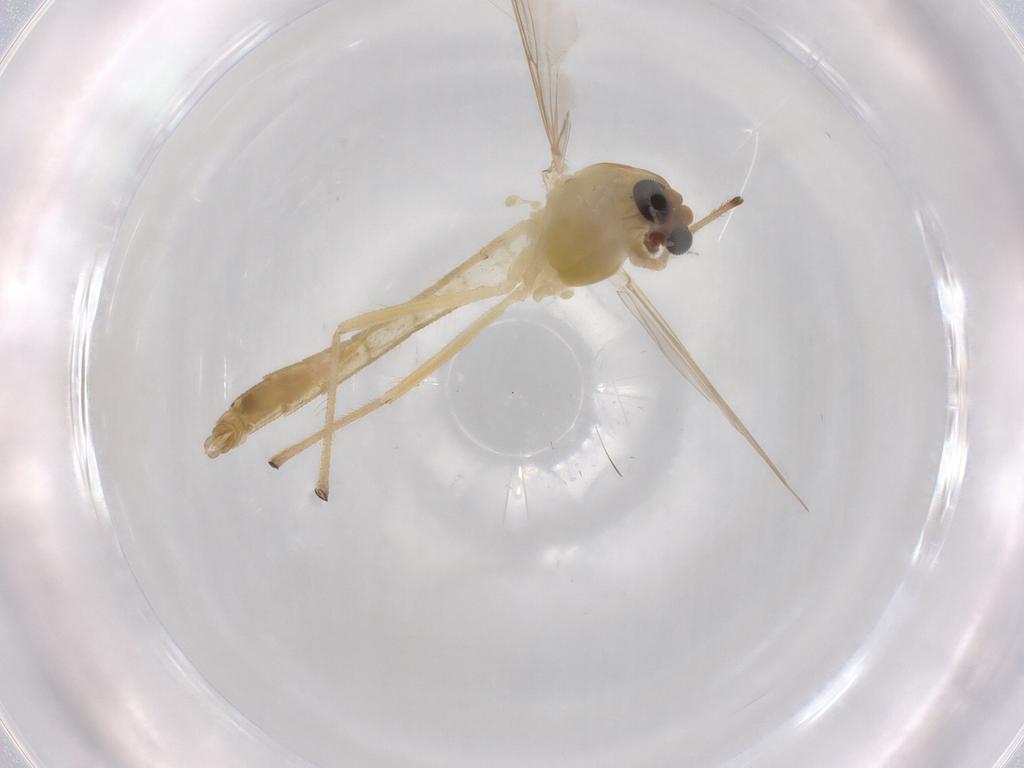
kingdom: Animalia
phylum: Arthropoda
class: Insecta
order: Diptera
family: Chironomidae
